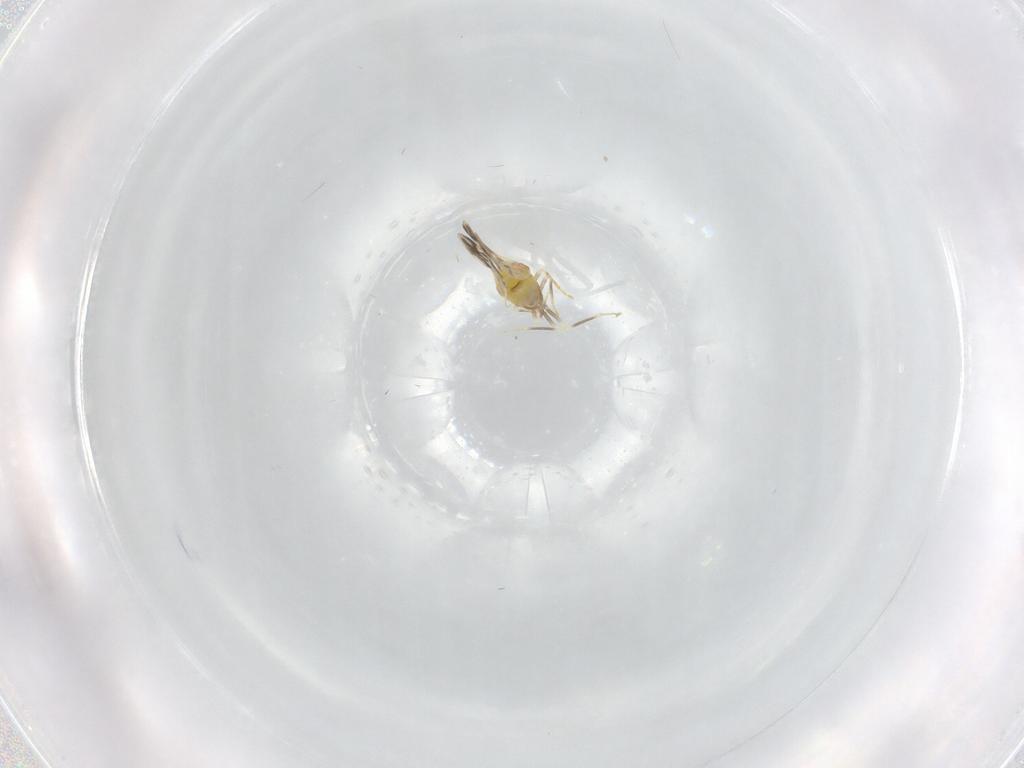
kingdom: Animalia
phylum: Arthropoda
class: Insecta
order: Hemiptera
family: Aleyrodidae
